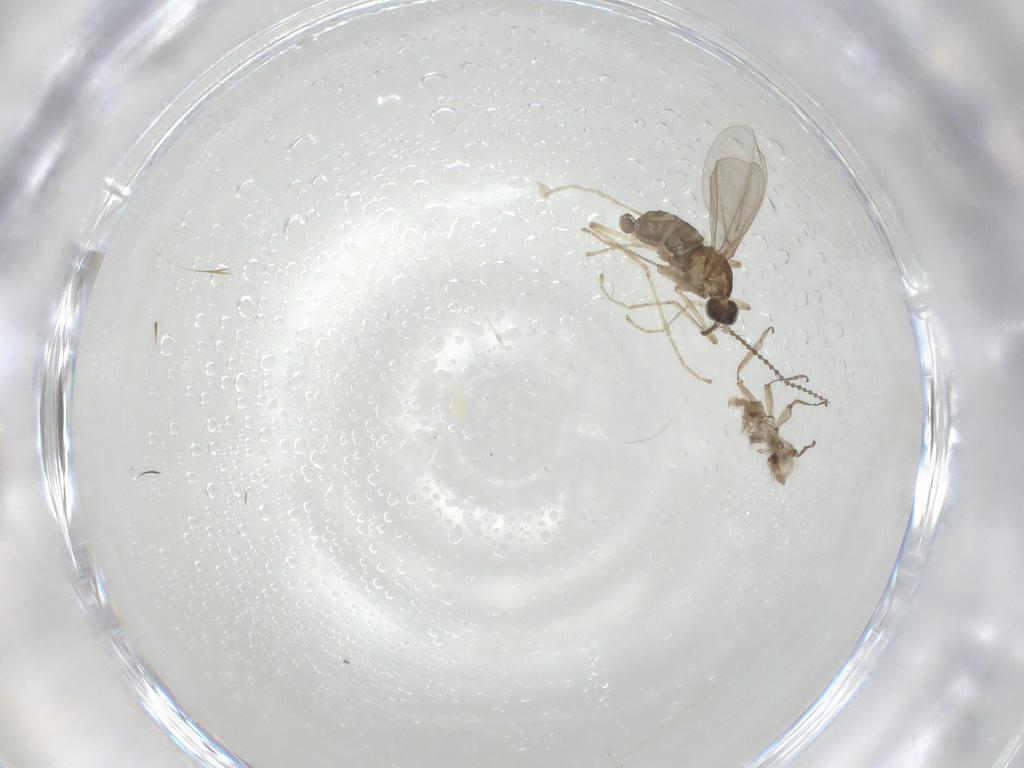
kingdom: Animalia
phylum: Arthropoda
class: Insecta
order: Diptera
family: Cecidomyiidae
